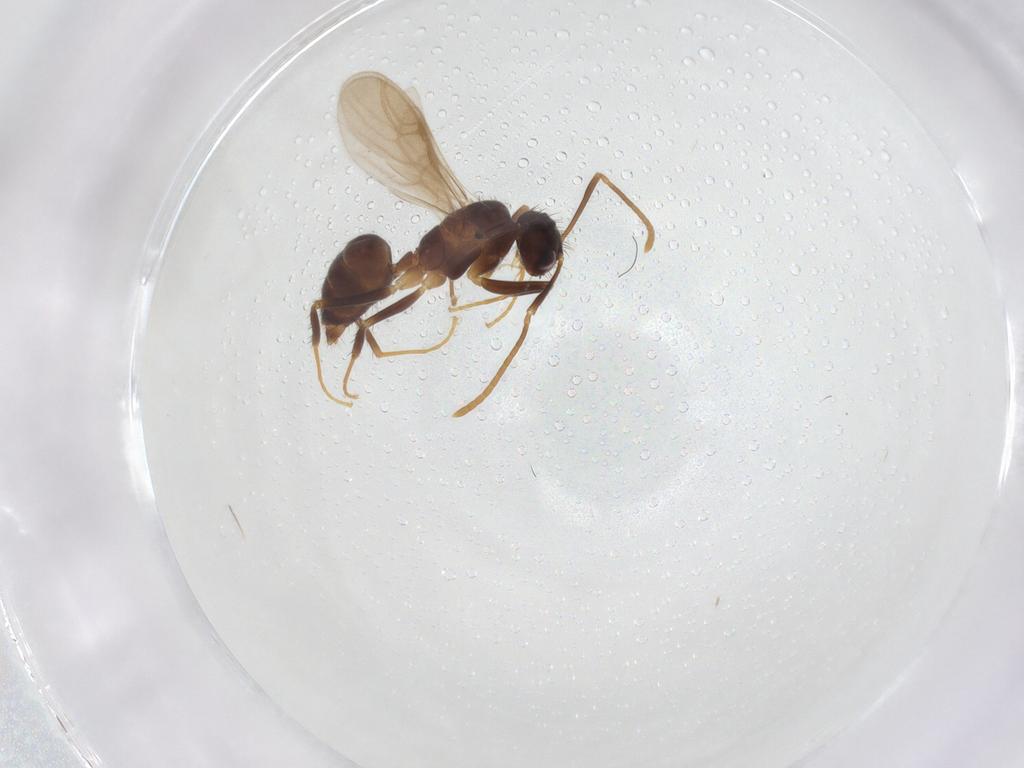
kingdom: Animalia
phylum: Arthropoda
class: Insecta
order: Hymenoptera
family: Formicidae
